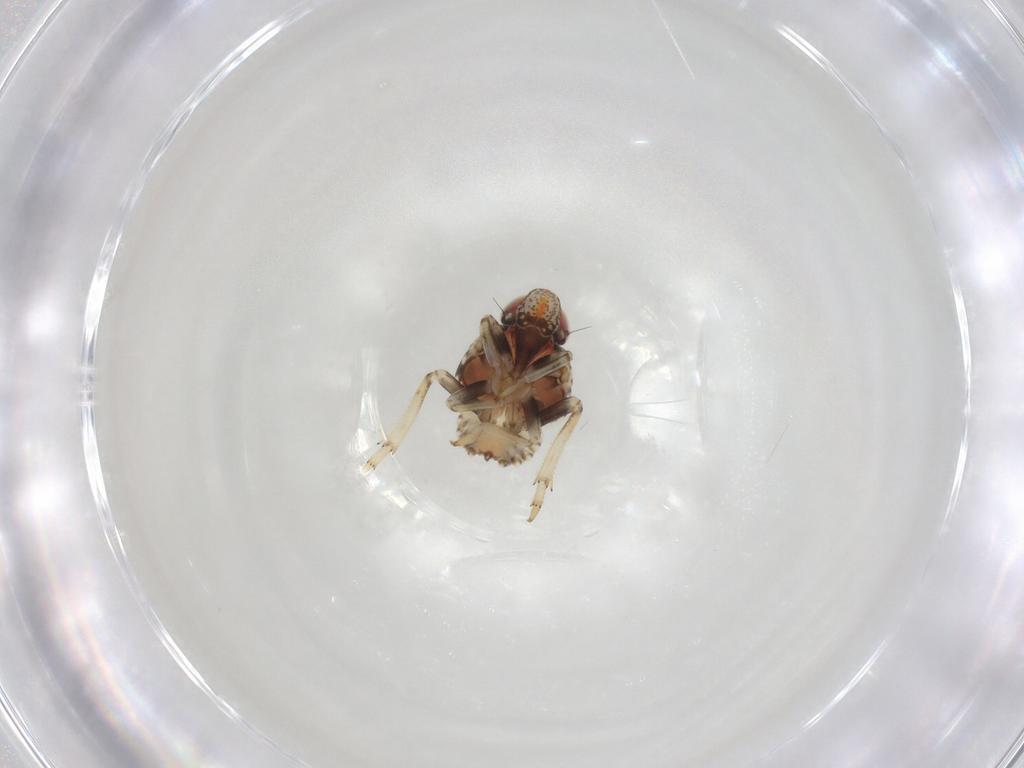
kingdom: Animalia
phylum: Arthropoda
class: Insecta
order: Hemiptera
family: Issidae
